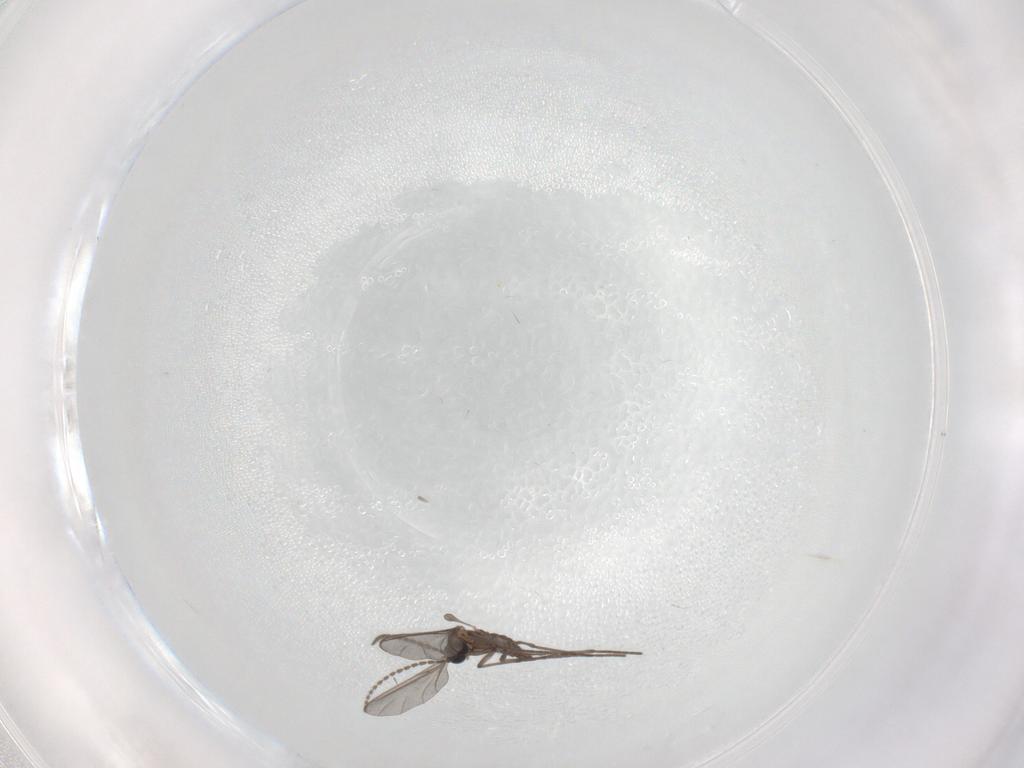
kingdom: Animalia
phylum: Arthropoda
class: Insecta
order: Diptera
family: Sciaridae
